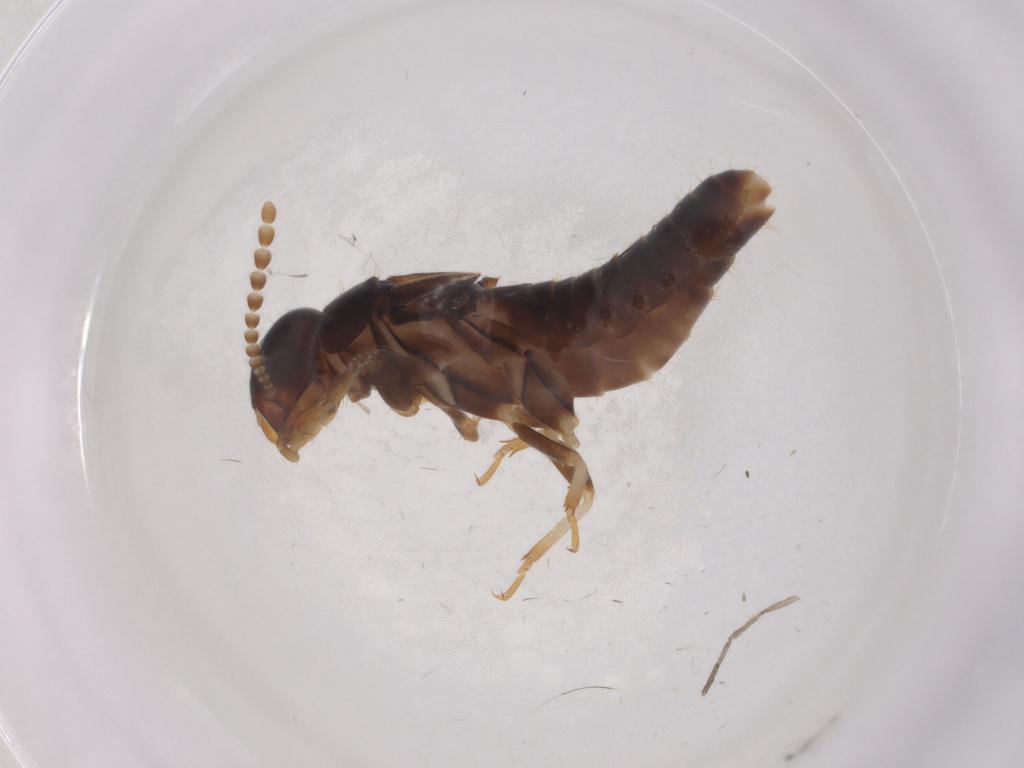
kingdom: Animalia
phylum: Arthropoda
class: Insecta
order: Blattodea
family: Kalotermitidae
